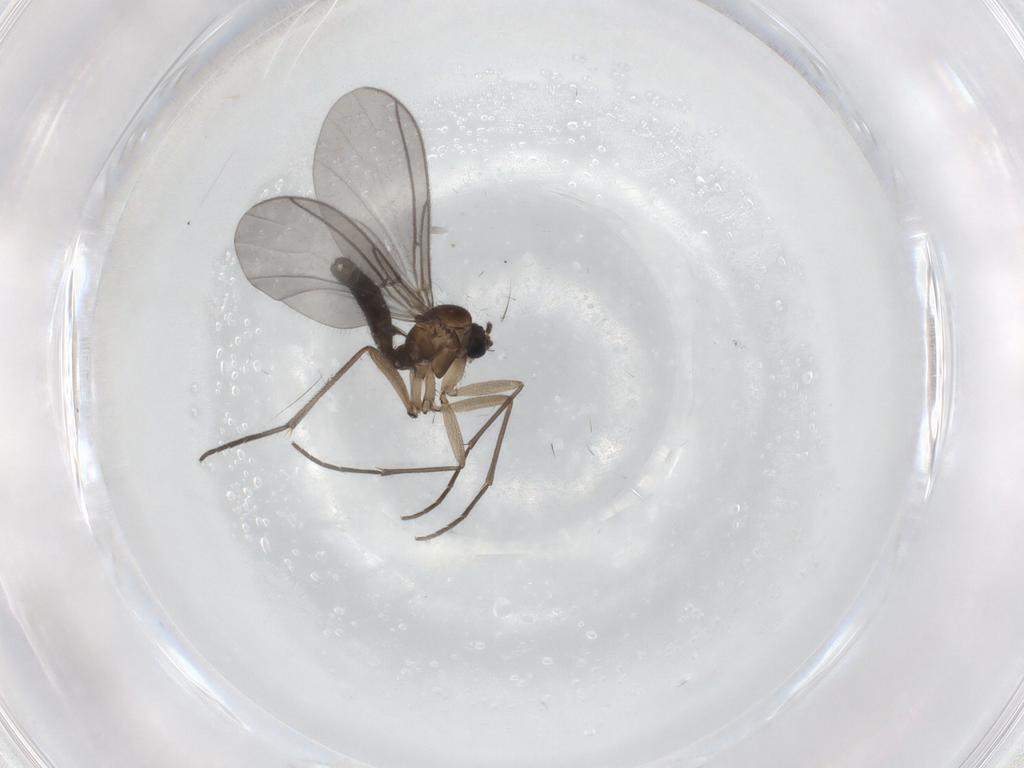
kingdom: Animalia
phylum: Arthropoda
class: Insecta
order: Diptera
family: Sciaridae
